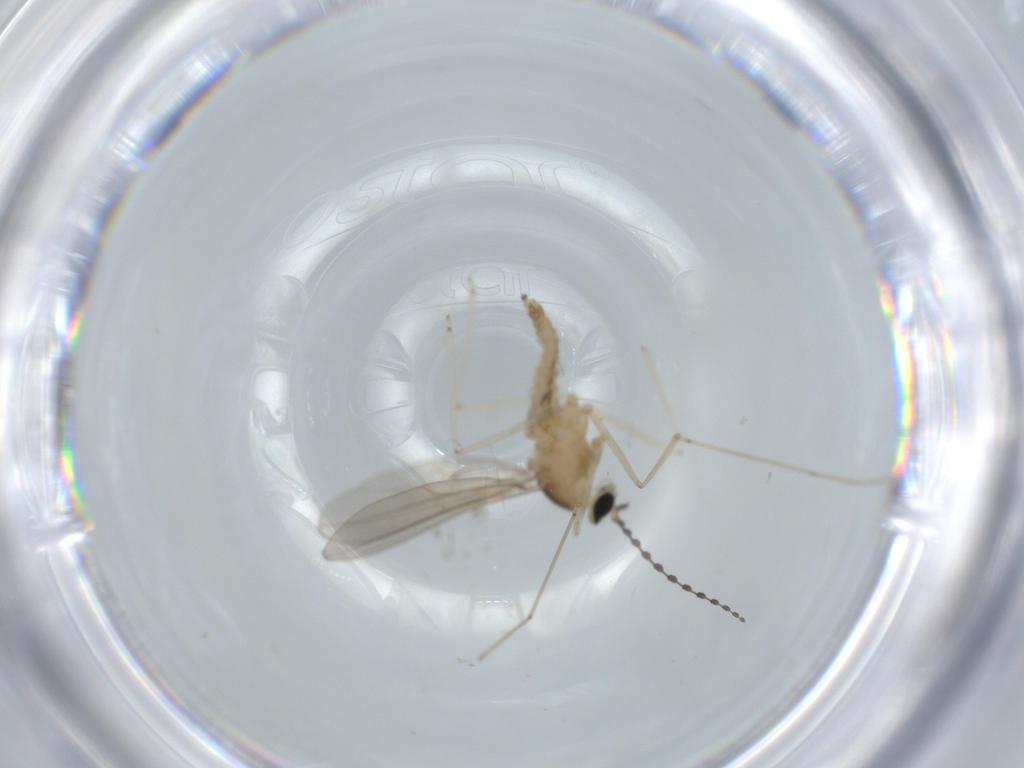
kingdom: Animalia
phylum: Arthropoda
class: Insecta
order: Diptera
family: Cecidomyiidae
